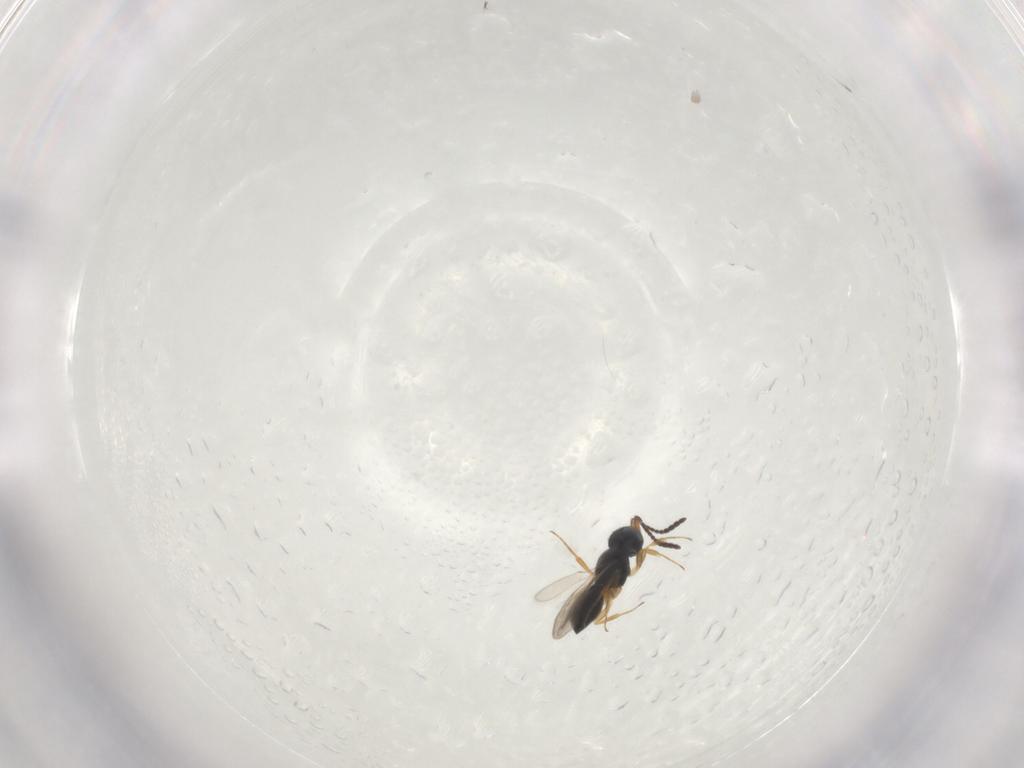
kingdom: Animalia
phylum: Arthropoda
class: Insecta
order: Hymenoptera
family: Scelionidae
